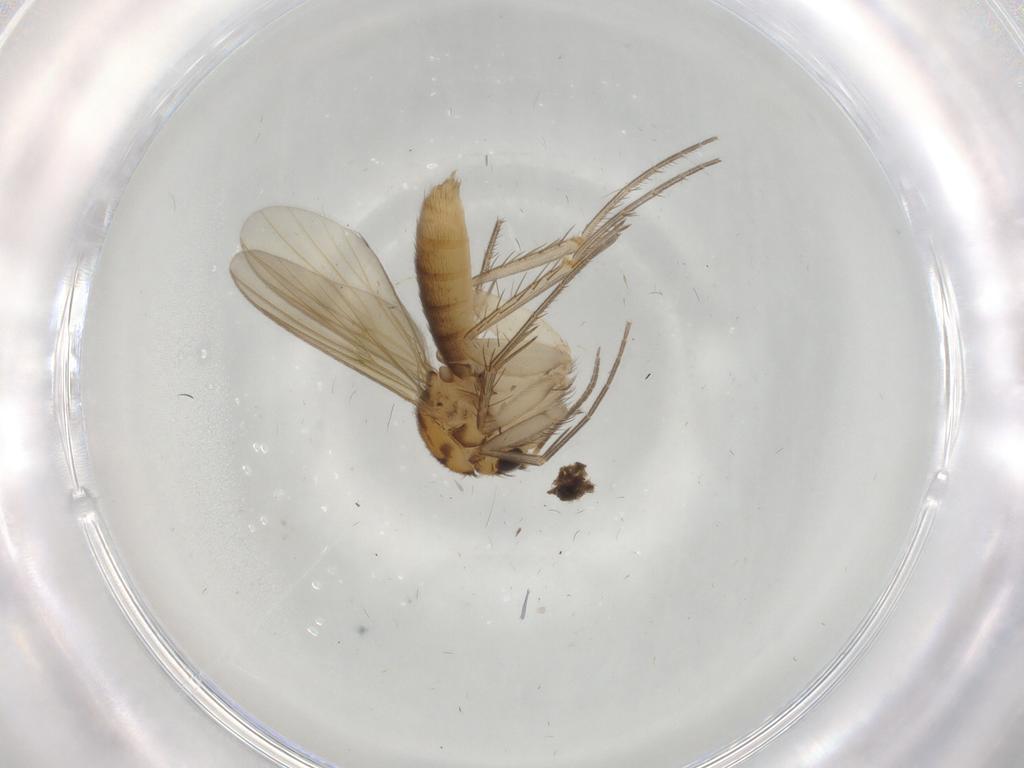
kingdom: Animalia
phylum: Arthropoda
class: Insecta
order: Diptera
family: Mycetophilidae
